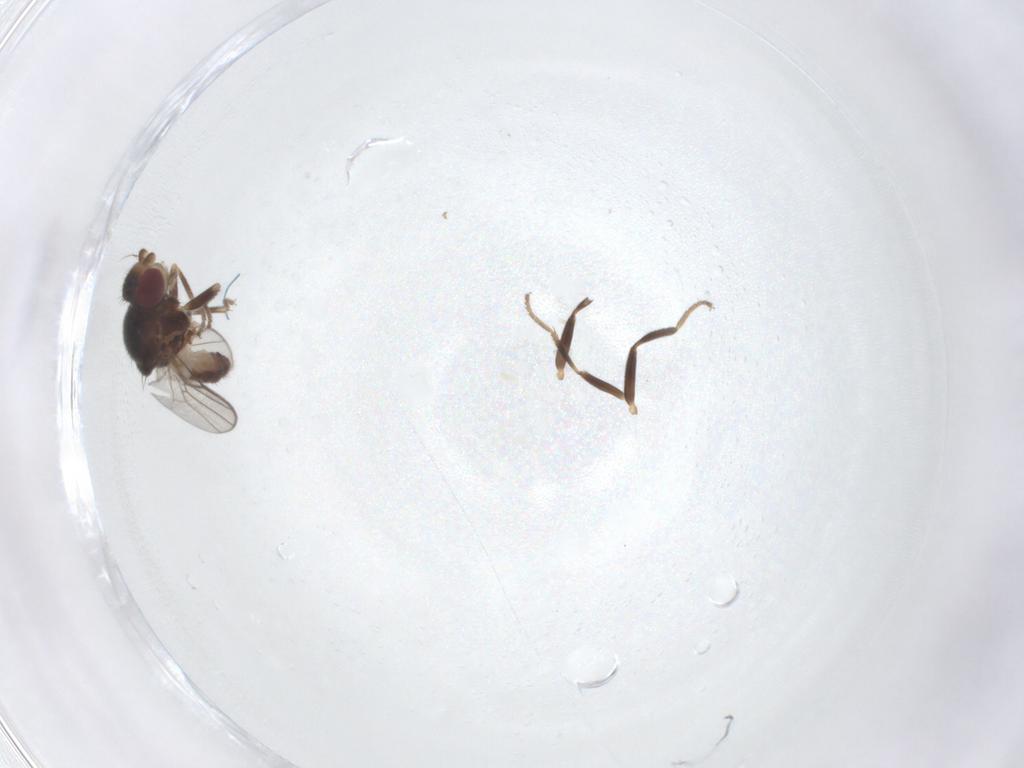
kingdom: Animalia
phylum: Arthropoda
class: Insecta
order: Diptera
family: Chloropidae
